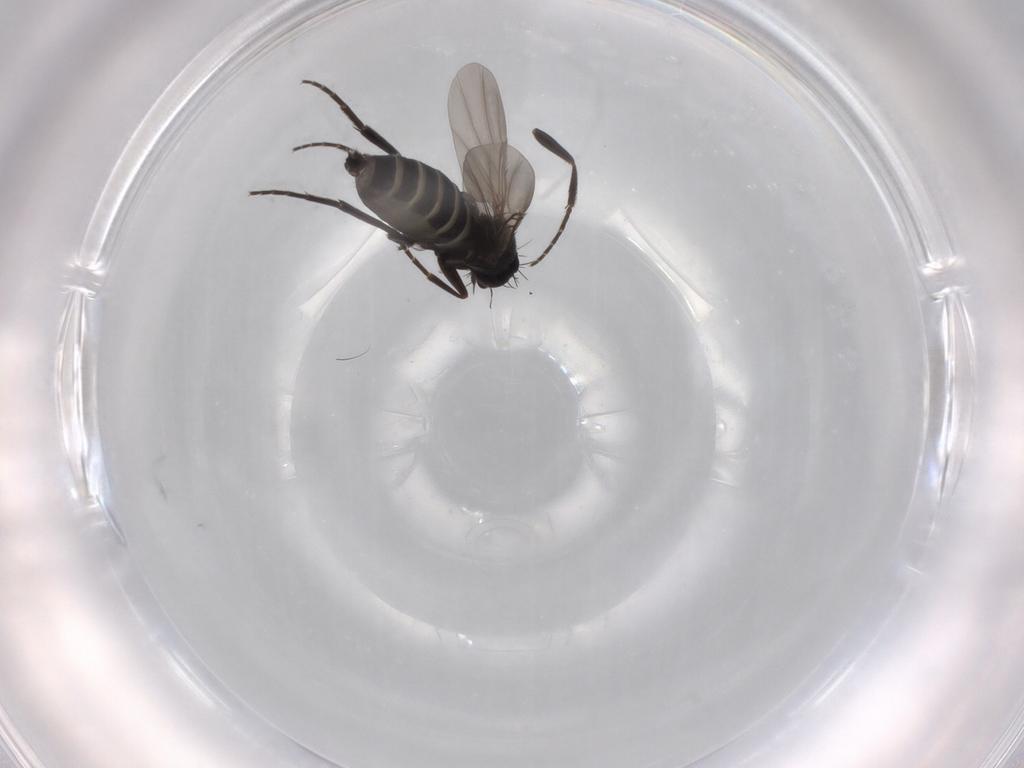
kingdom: Animalia
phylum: Arthropoda
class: Insecta
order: Diptera
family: Phoridae
